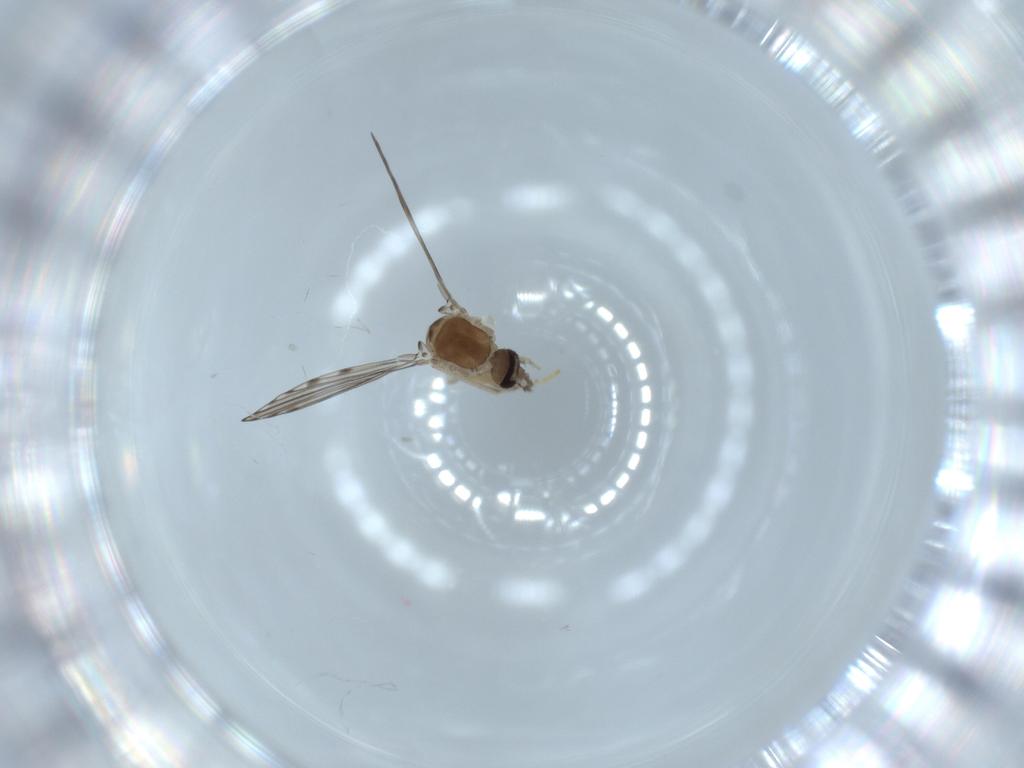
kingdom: Animalia
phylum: Arthropoda
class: Insecta
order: Diptera
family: Psychodidae
